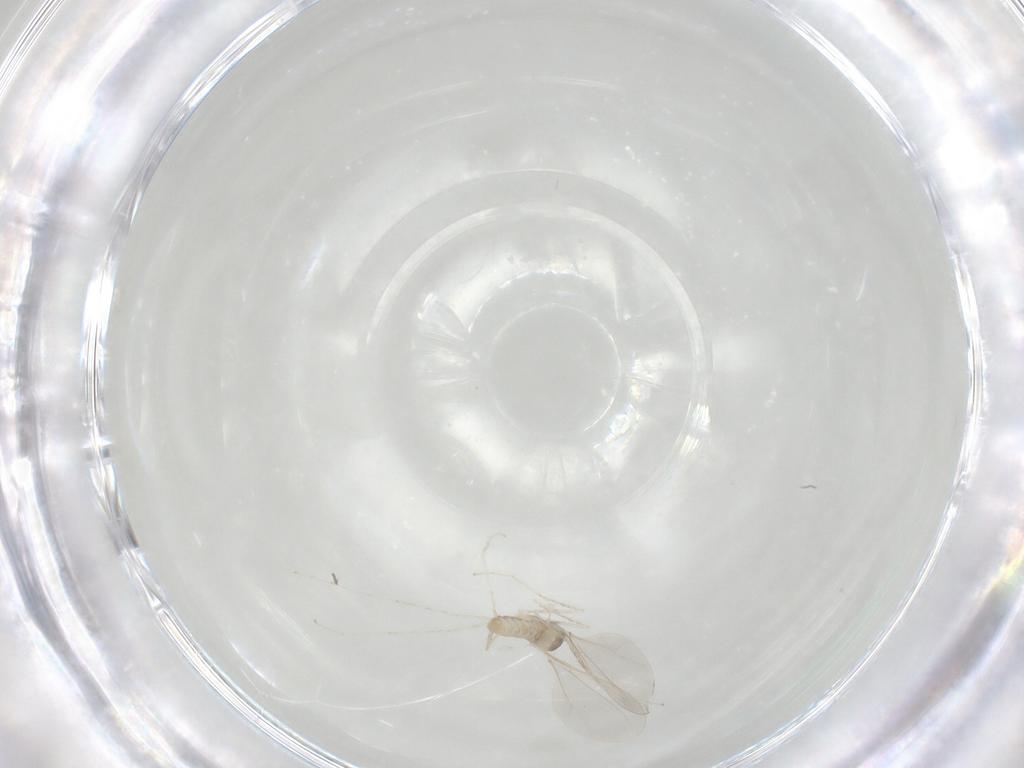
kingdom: Animalia
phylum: Arthropoda
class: Insecta
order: Diptera
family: Cecidomyiidae
